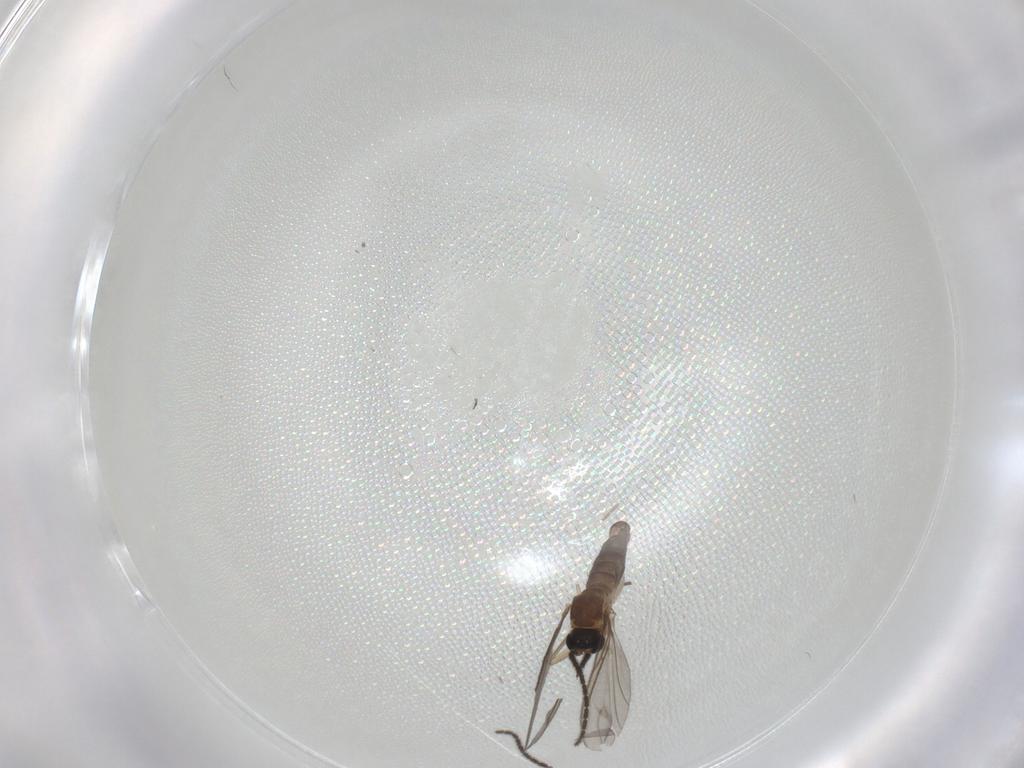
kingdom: Animalia
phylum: Arthropoda
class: Insecta
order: Diptera
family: Sciaridae
